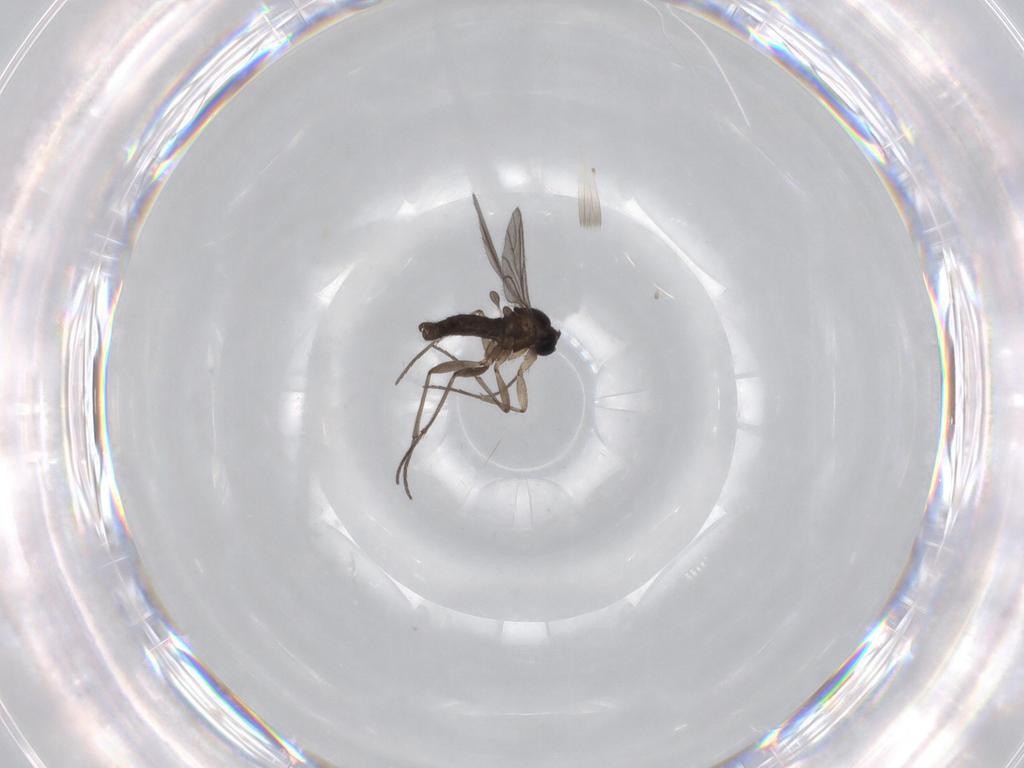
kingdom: Animalia
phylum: Arthropoda
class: Insecta
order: Diptera
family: Sciaridae
